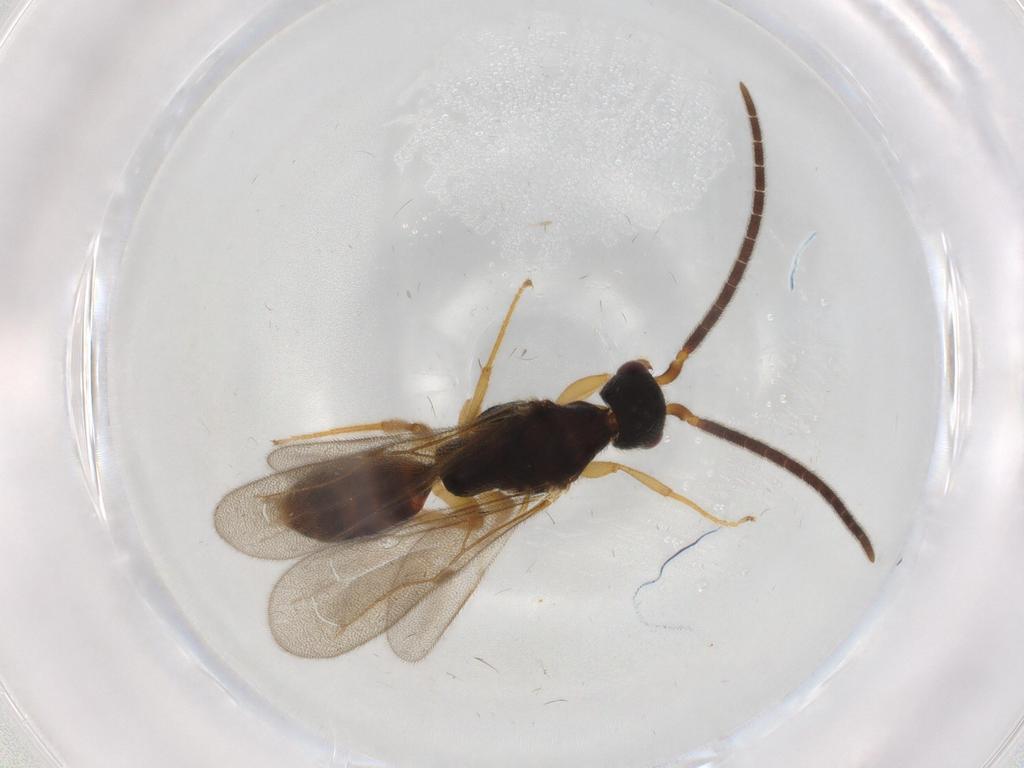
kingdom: Animalia
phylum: Arthropoda
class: Insecta
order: Hymenoptera
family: Bethylidae
